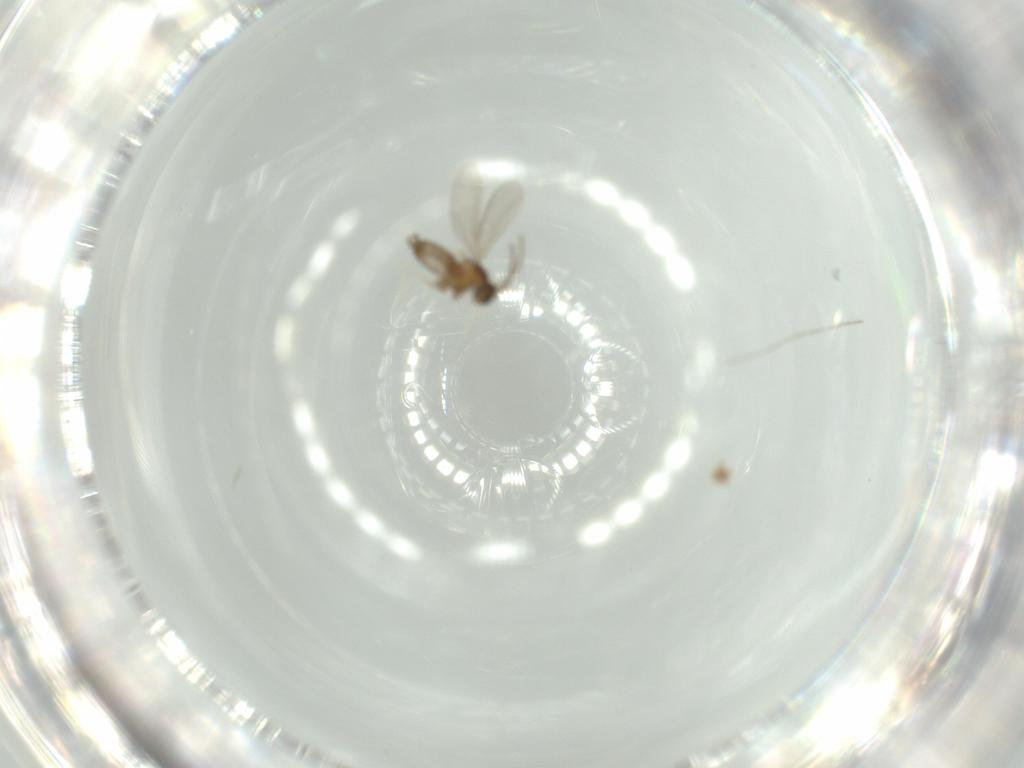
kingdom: Animalia
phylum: Arthropoda
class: Insecta
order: Diptera
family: Cecidomyiidae
